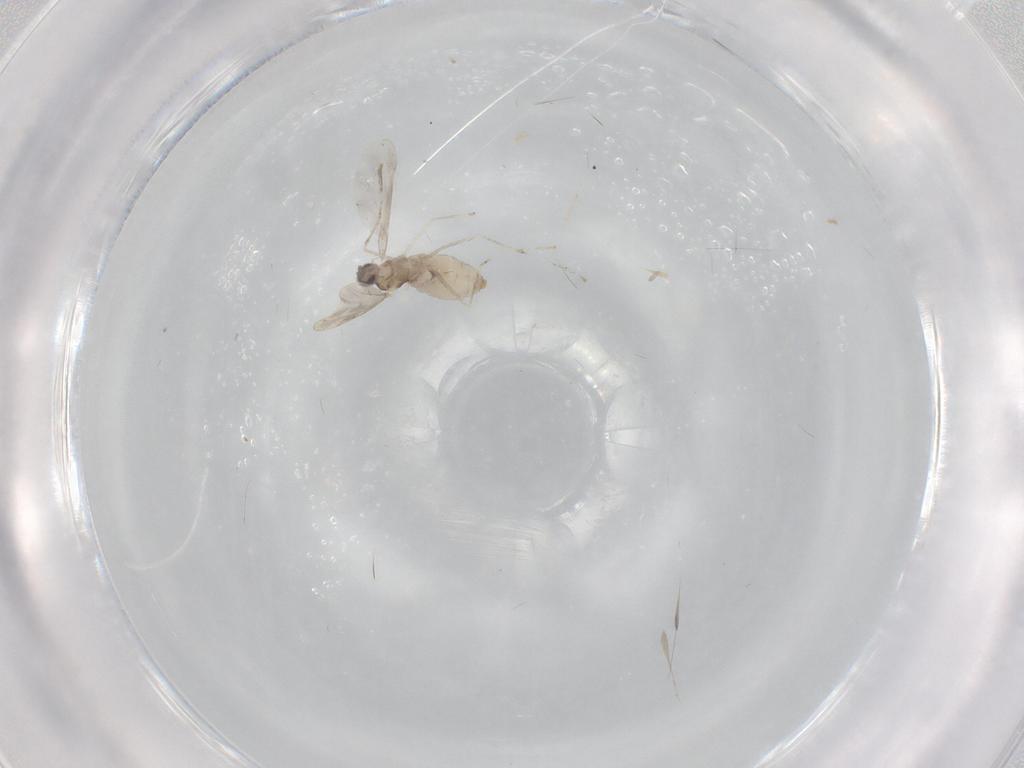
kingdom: Animalia
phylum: Arthropoda
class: Insecta
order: Diptera
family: Cecidomyiidae
